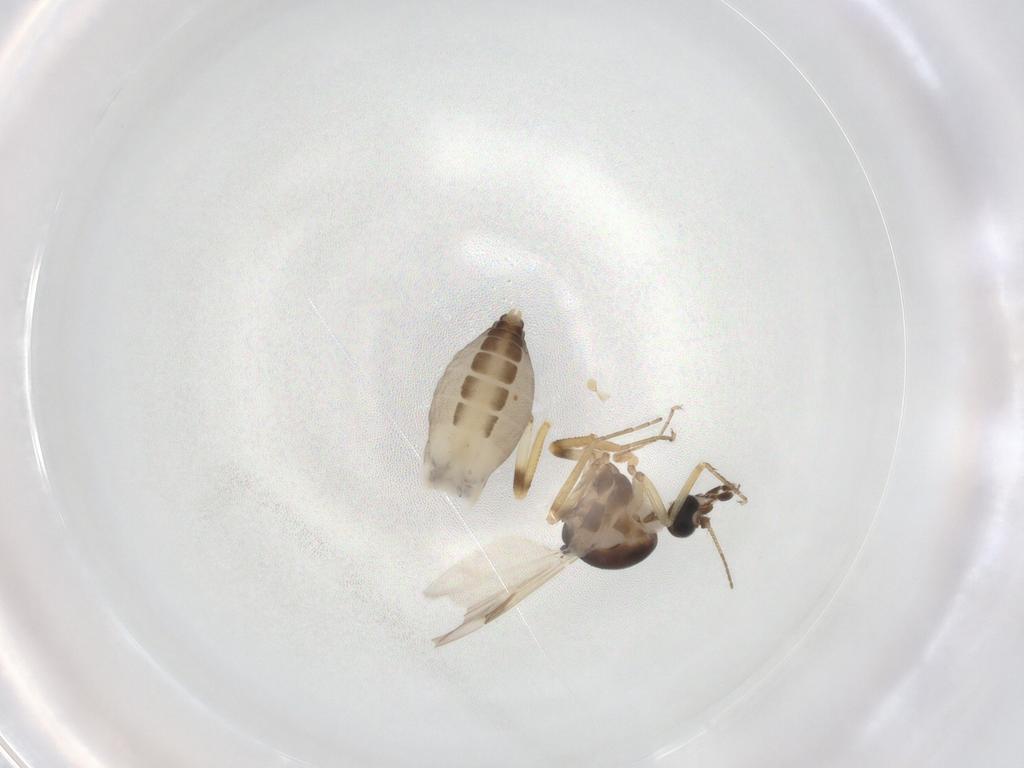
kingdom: Animalia
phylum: Arthropoda
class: Insecta
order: Diptera
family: Ceratopogonidae
